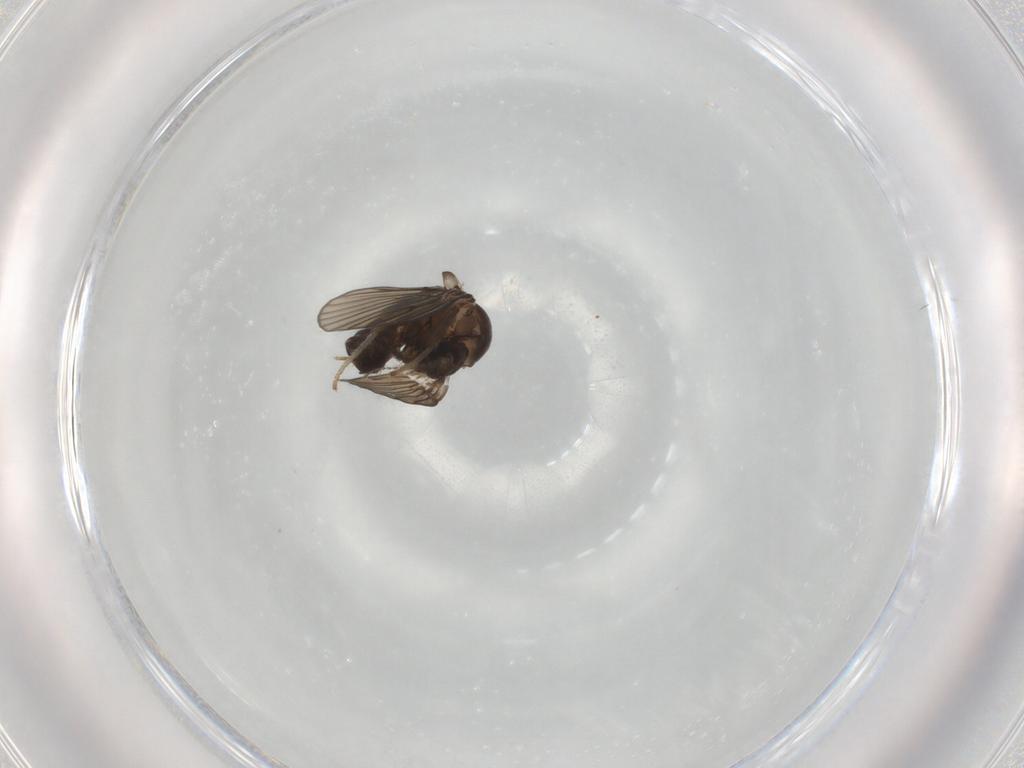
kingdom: Animalia
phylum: Arthropoda
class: Insecta
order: Diptera
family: Psychodidae
